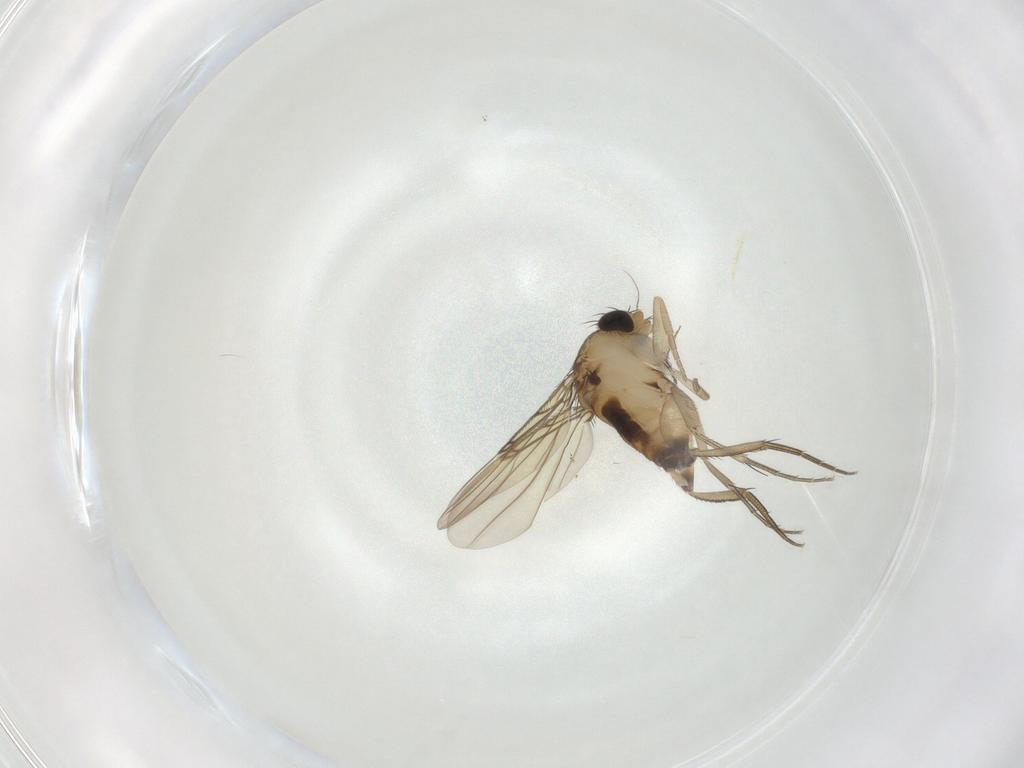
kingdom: Animalia
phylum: Arthropoda
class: Insecta
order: Diptera
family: Phoridae
